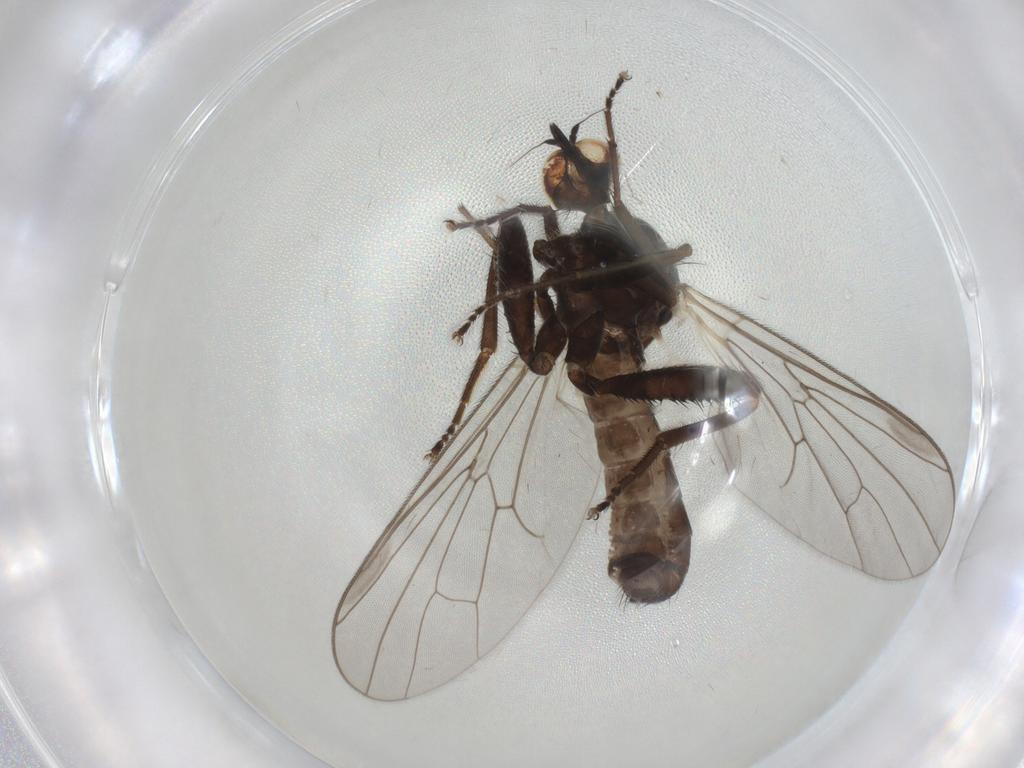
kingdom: Animalia
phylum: Arthropoda
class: Insecta
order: Diptera
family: Hybotidae
